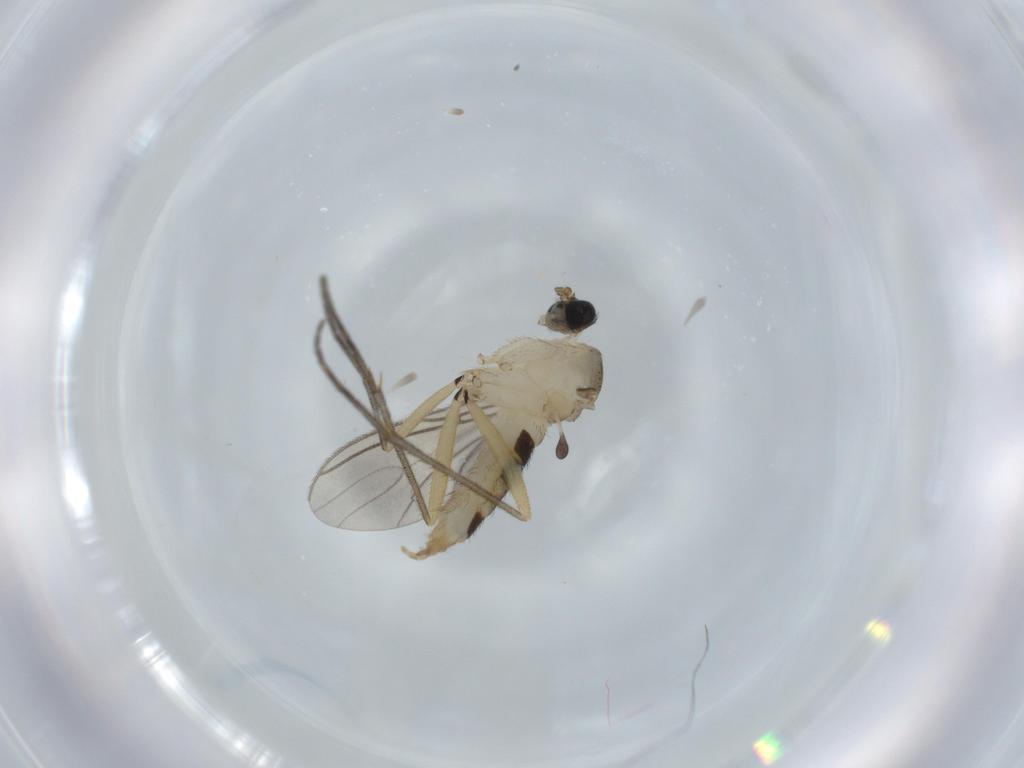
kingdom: Animalia
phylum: Arthropoda
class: Insecta
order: Diptera
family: Sciaridae
